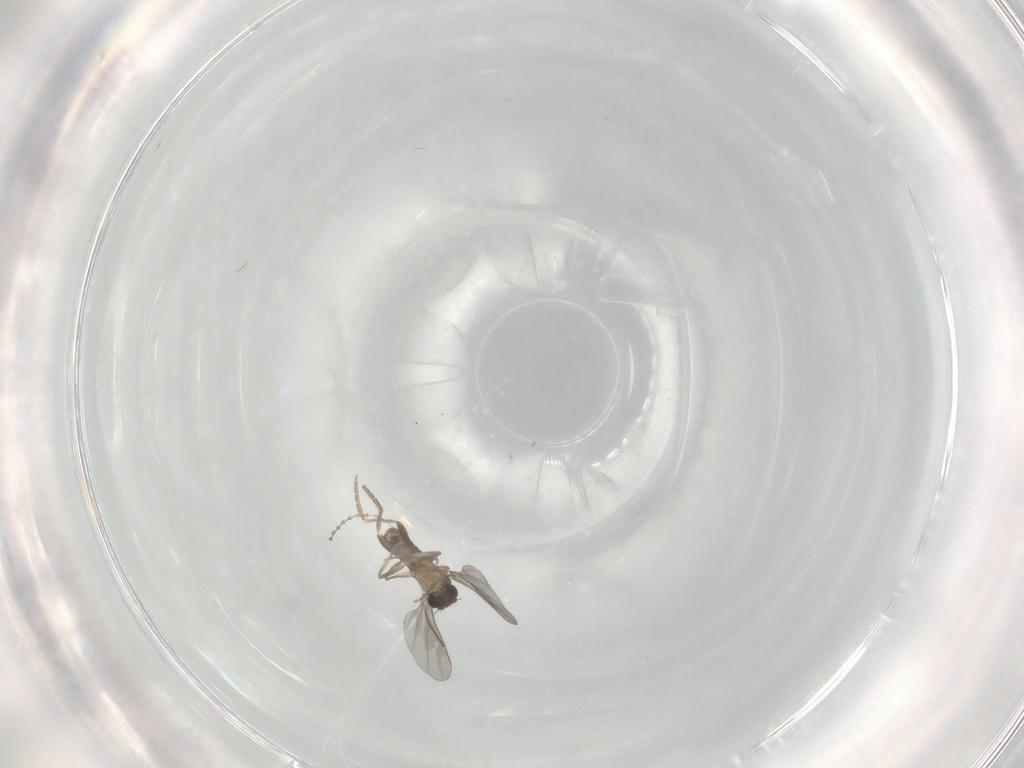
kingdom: Animalia
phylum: Arthropoda
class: Insecta
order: Diptera
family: Cecidomyiidae
